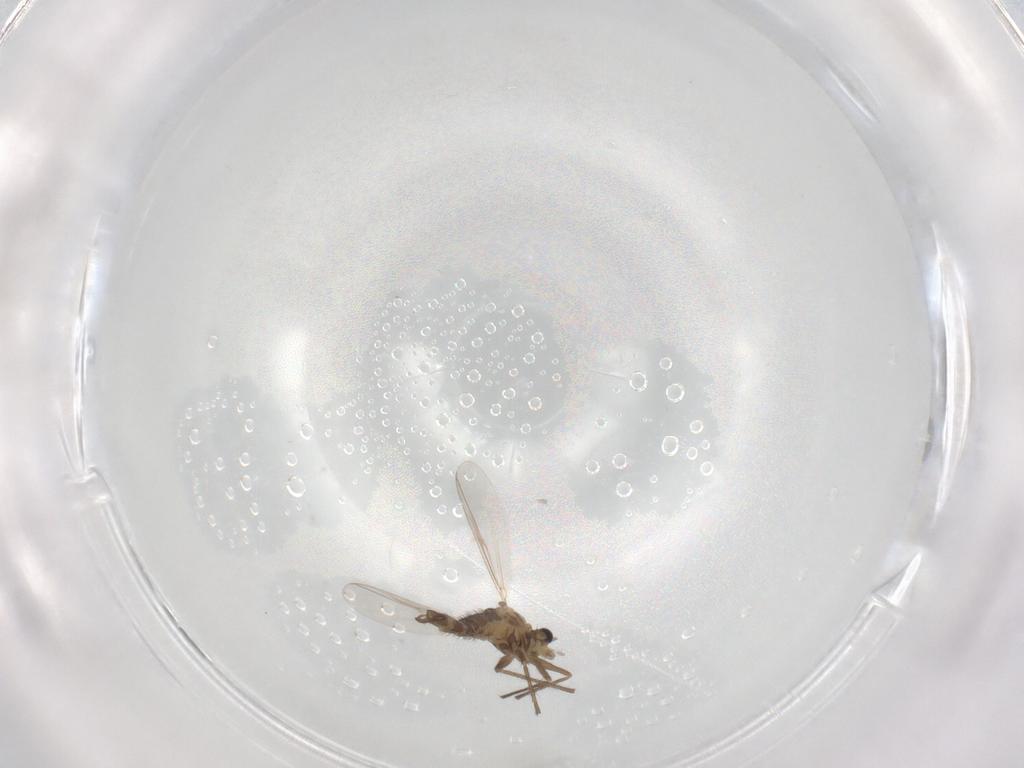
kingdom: Animalia
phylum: Arthropoda
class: Insecta
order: Diptera
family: Chironomidae
